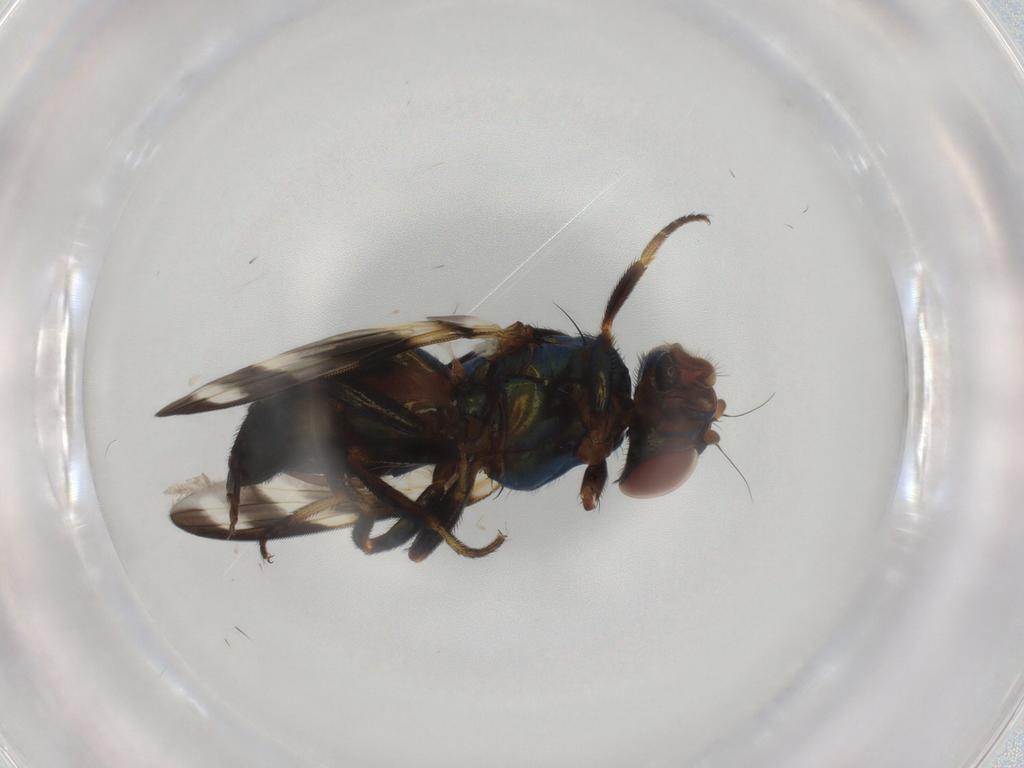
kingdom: Animalia
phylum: Arthropoda
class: Insecta
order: Diptera
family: Ulidiidae
